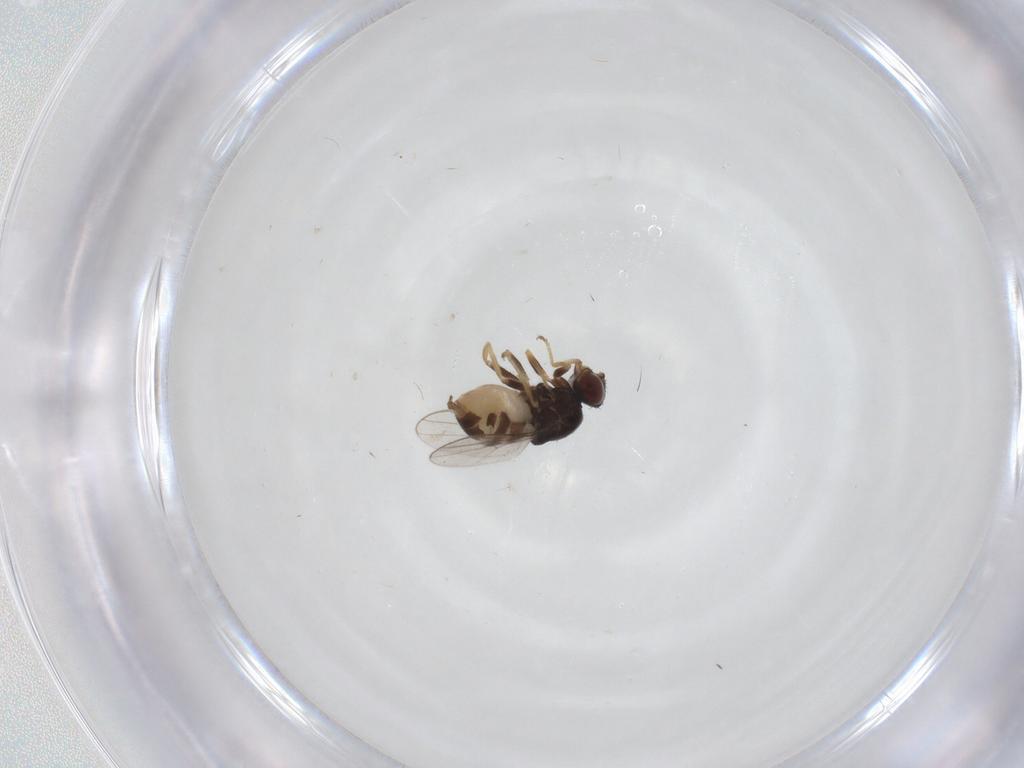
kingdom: Animalia
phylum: Arthropoda
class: Insecta
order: Diptera
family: Chloropidae
